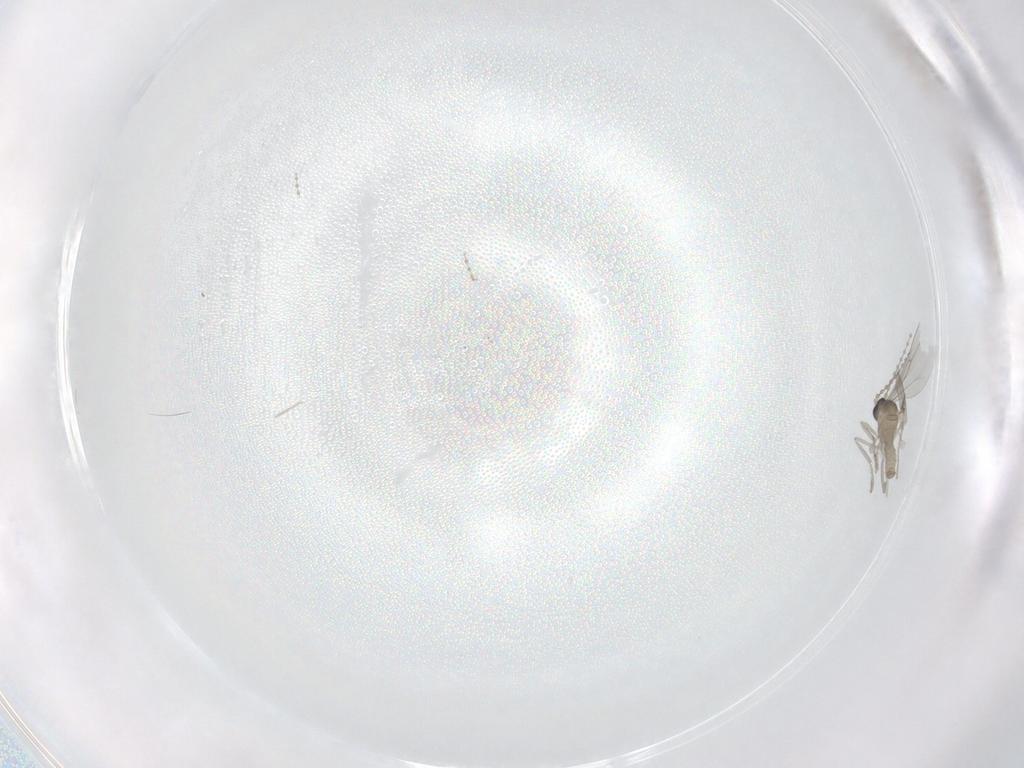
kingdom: Animalia
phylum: Arthropoda
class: Insecta
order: Diptera
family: Cecidomyiidae
